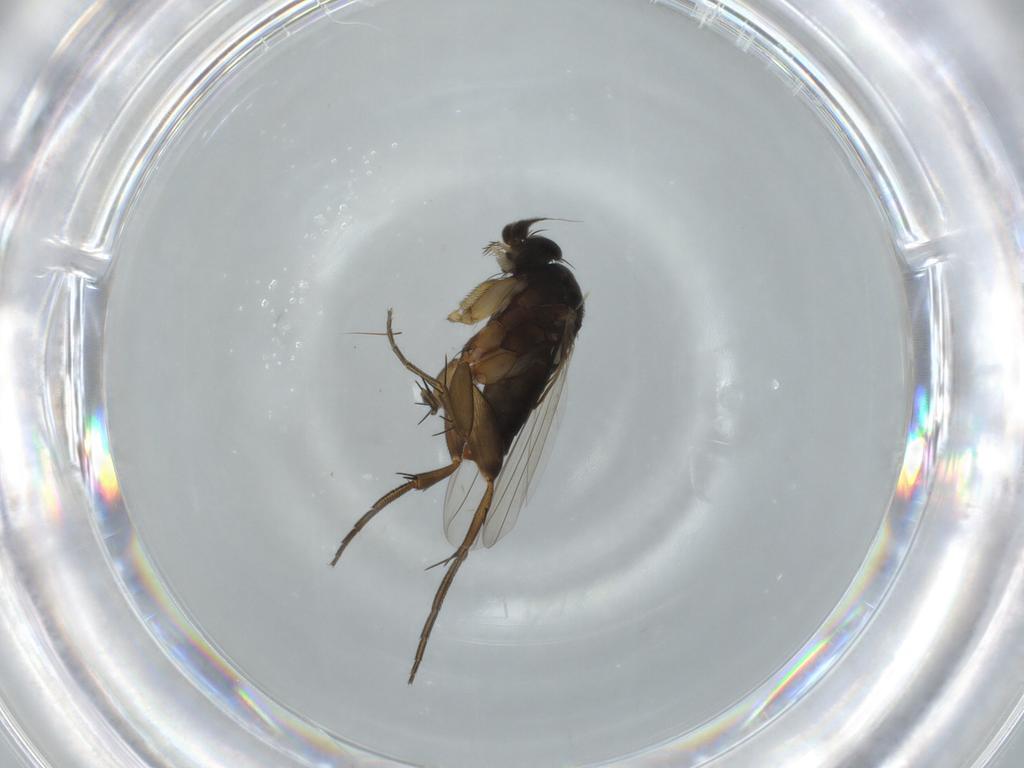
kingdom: Animalia
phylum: Arthropoda
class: Insecta
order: Diptera
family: Phoridae
